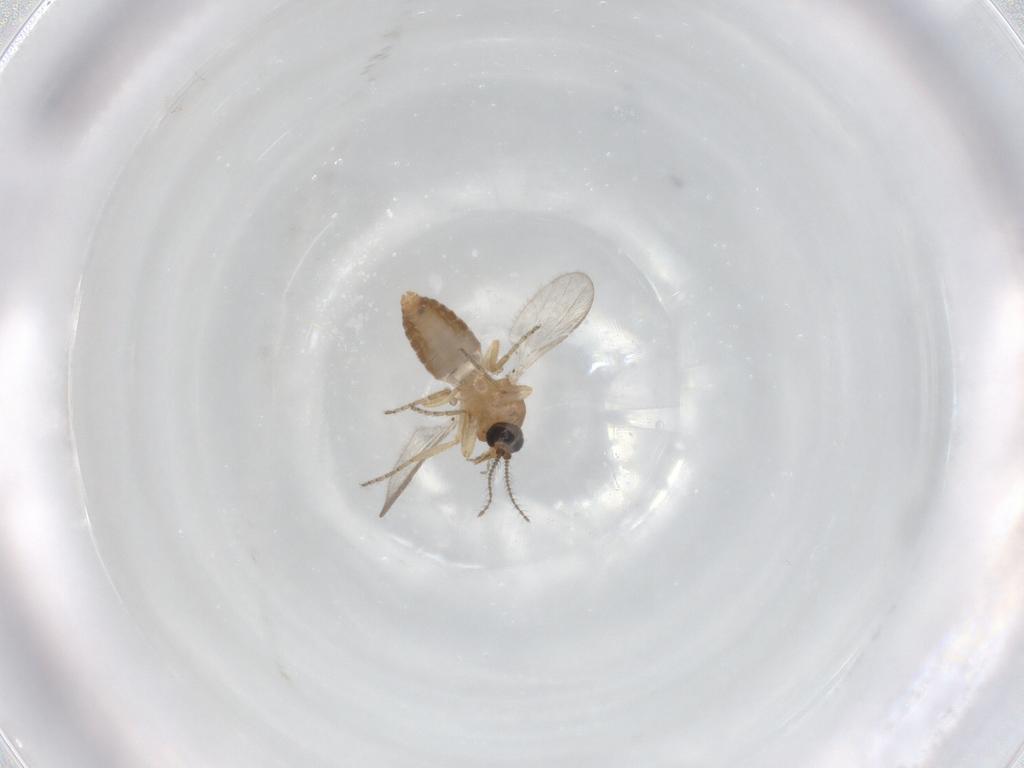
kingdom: Animalia
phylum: Arthropoda
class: Insecta
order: Diptera
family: Ceratopogonidae
